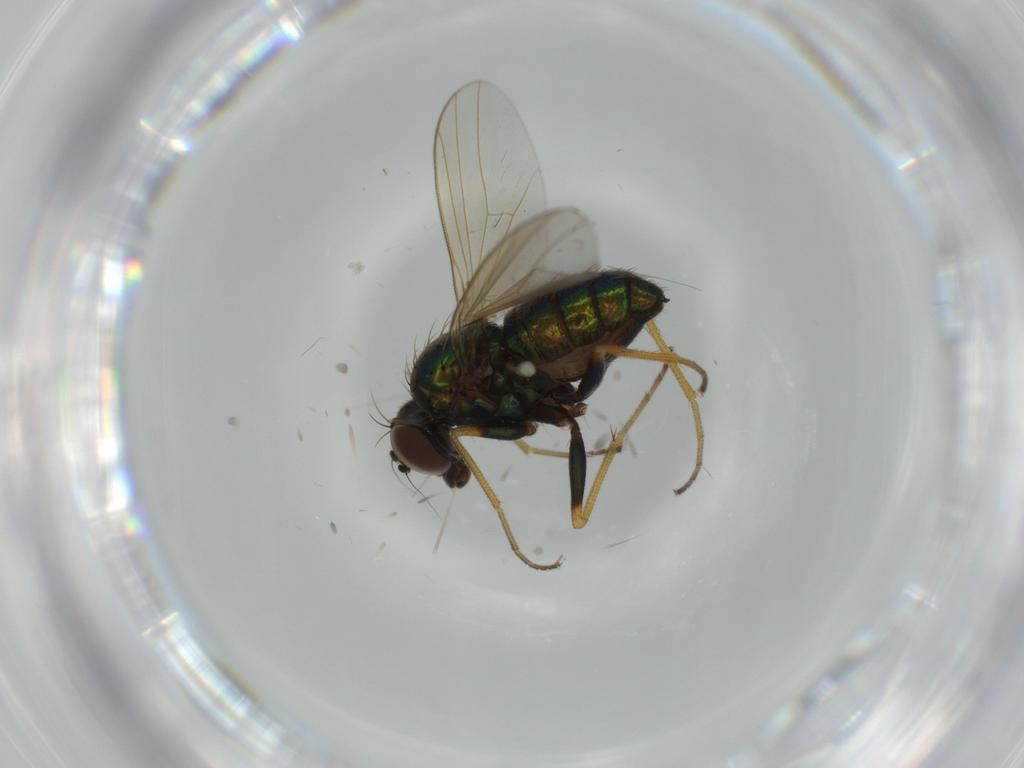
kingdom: Animalia
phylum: Arthropoda
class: Insecta
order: Diptera
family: Dolichopodidae
